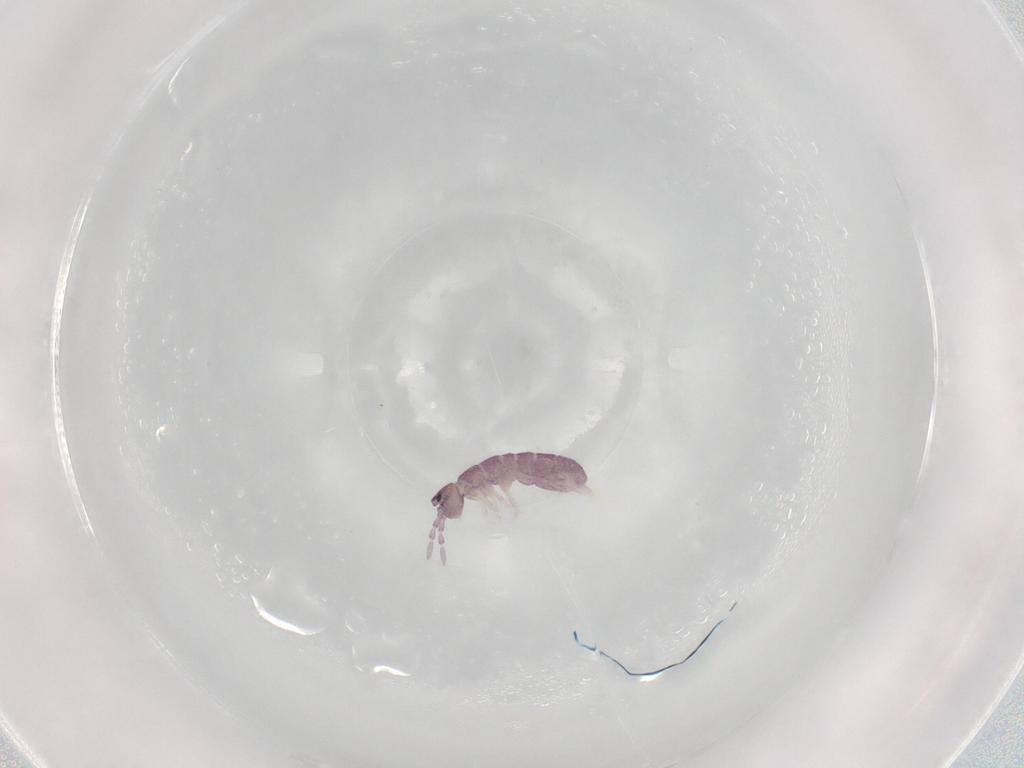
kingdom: Animalia
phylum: Arthropoda
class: Collembola
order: Entomobryomorpha
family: Isotomidae
